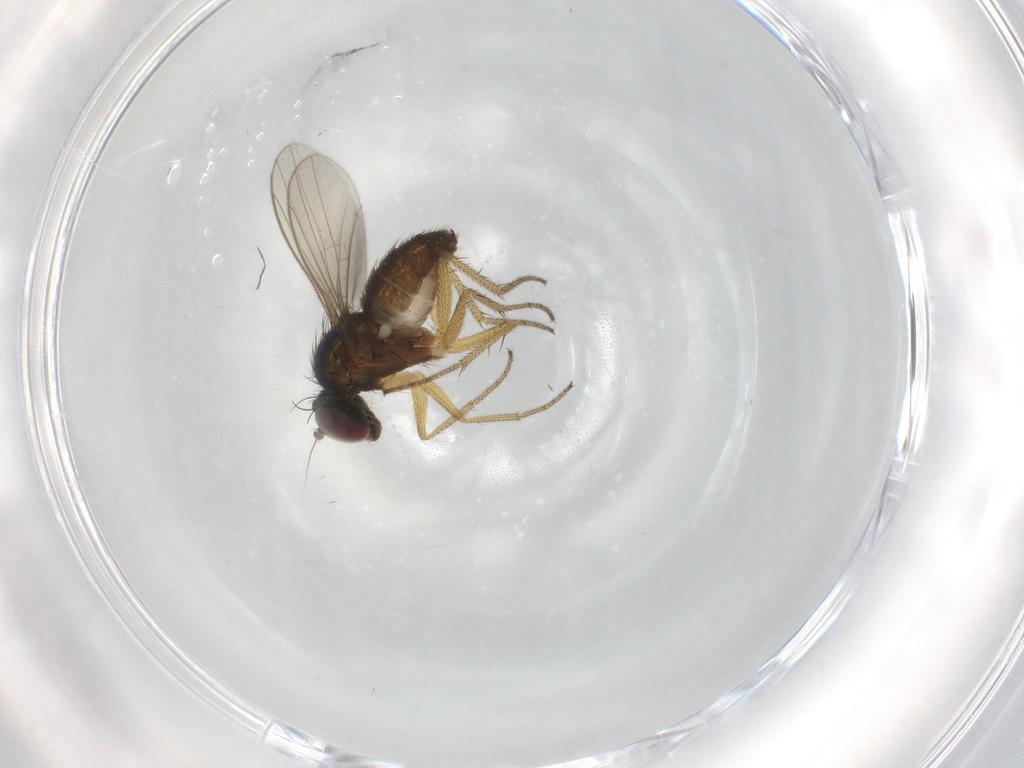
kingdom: Animalia
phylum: Arthropoda
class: Insecta
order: Diptera
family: Dolichopodidae
